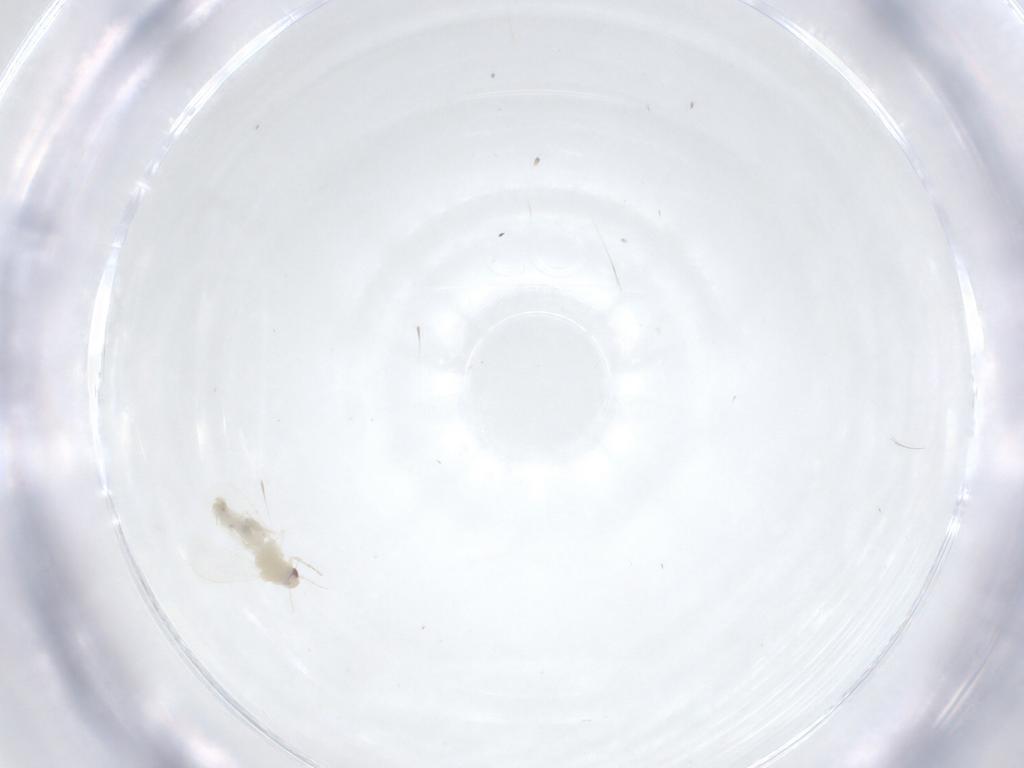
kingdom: Animalia
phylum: Arthropoda
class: Insecta
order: Hemiptera
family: Aleyrodidae
